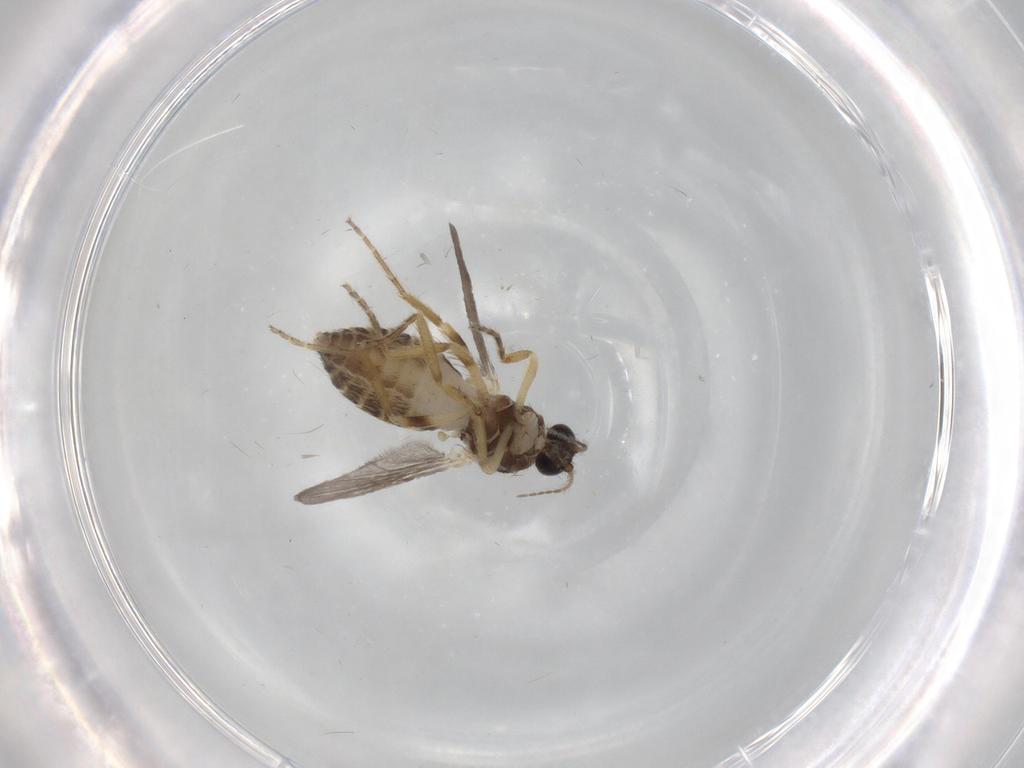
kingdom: Animalia
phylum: Arthropoda
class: Insecta
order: Diptera
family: Ceratopogonidae
